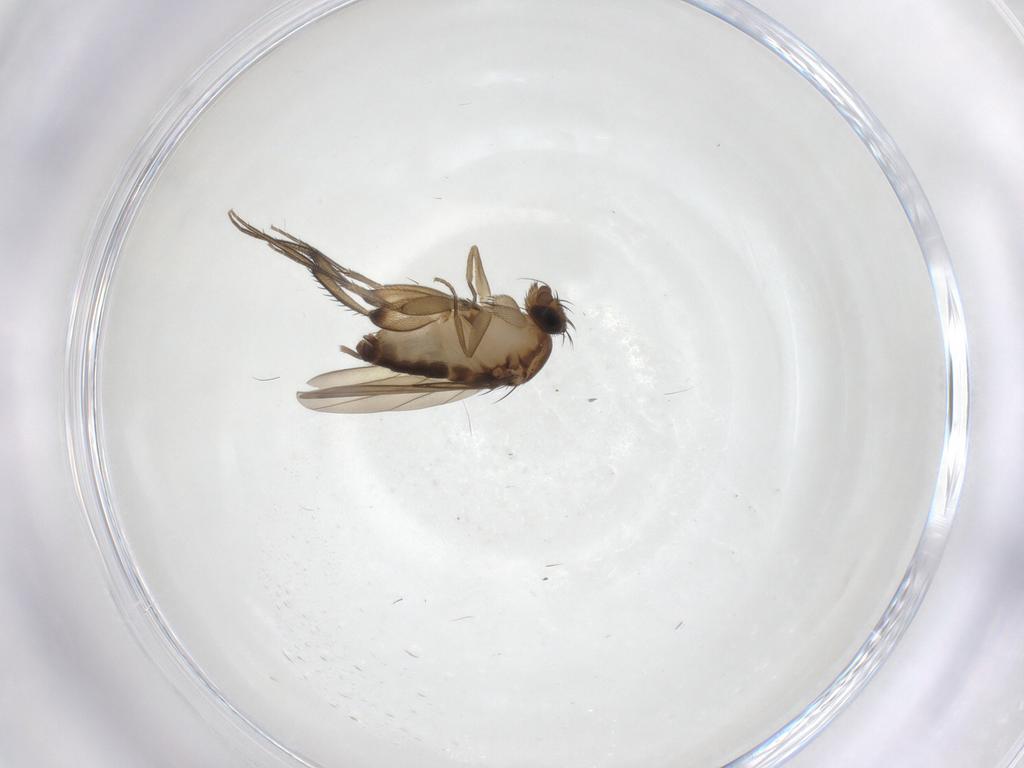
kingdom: Animalia
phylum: Arthropoda
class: Insecta
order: Diptera
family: Phoridae
